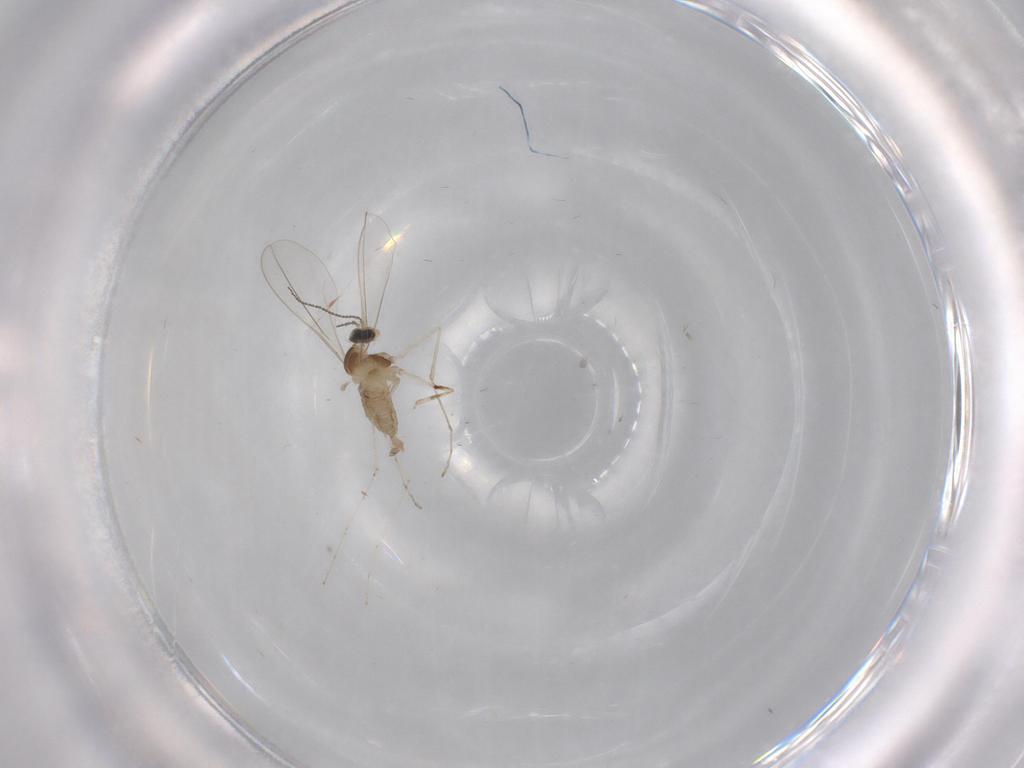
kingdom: Animalia
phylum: Arthropoda
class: Insecta
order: Diptera
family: Cecidomyiidae
